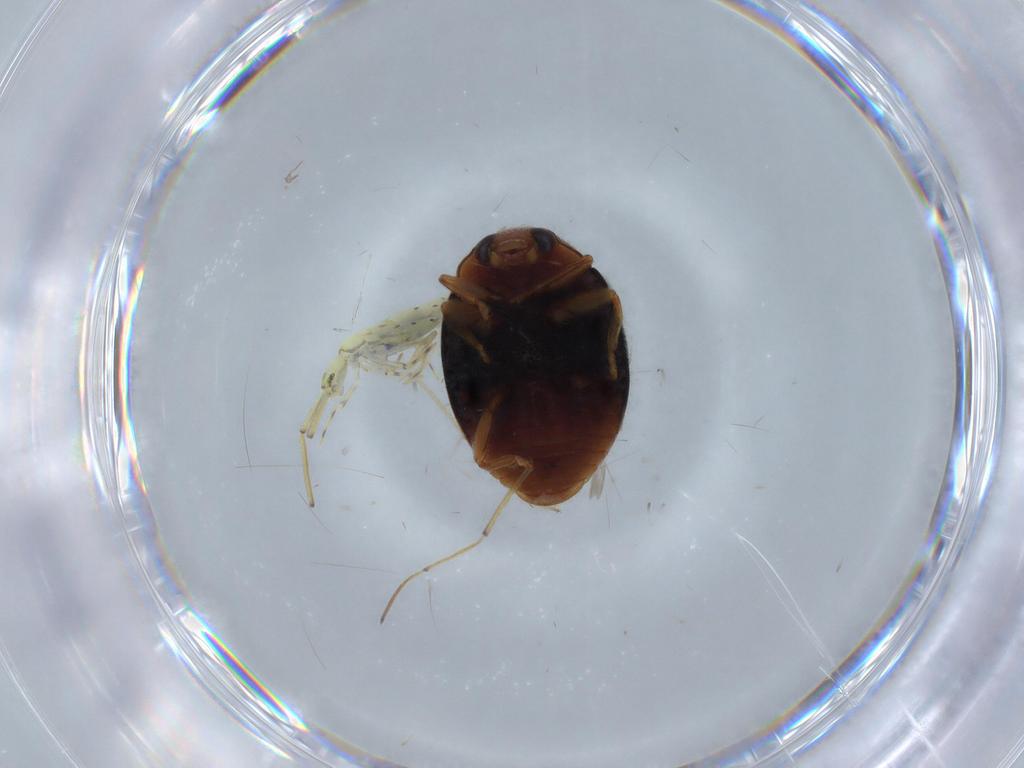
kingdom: Animalia
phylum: Arthropoda
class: Insecta
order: Coleoptera
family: Coccinellidae
